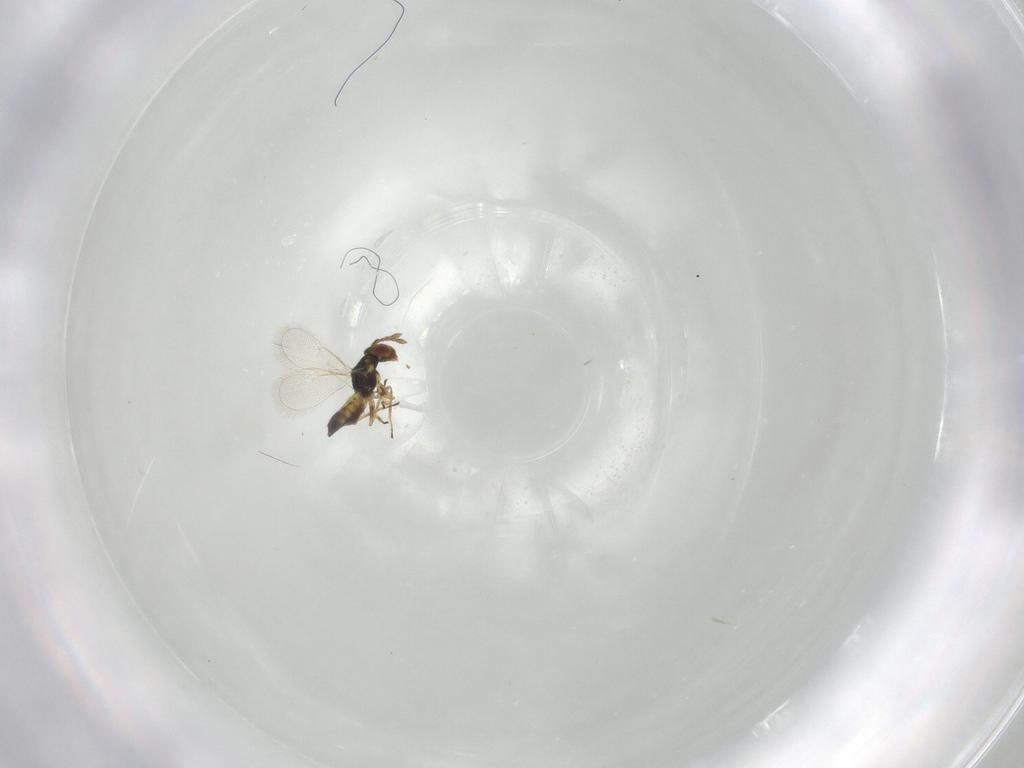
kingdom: Animalia
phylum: Arthropoda
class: Insecta
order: Hymenoptera
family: Eulophidae
